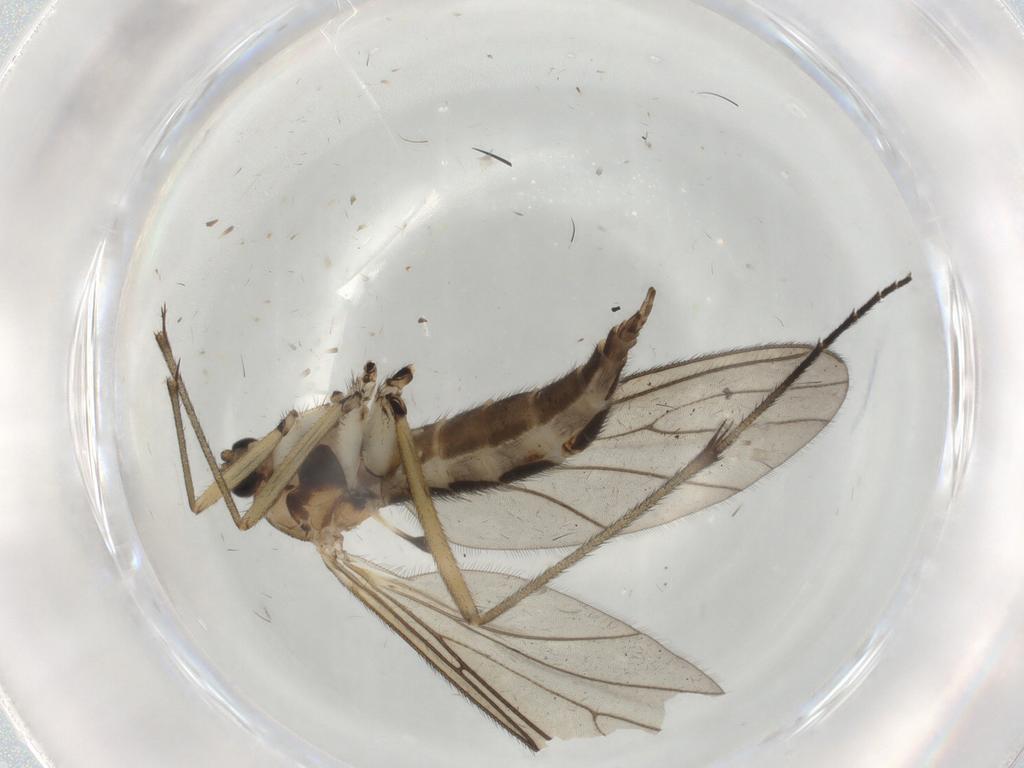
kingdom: Animalia
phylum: Arthropoda
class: Insecta
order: Diptera
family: Sciaridae
